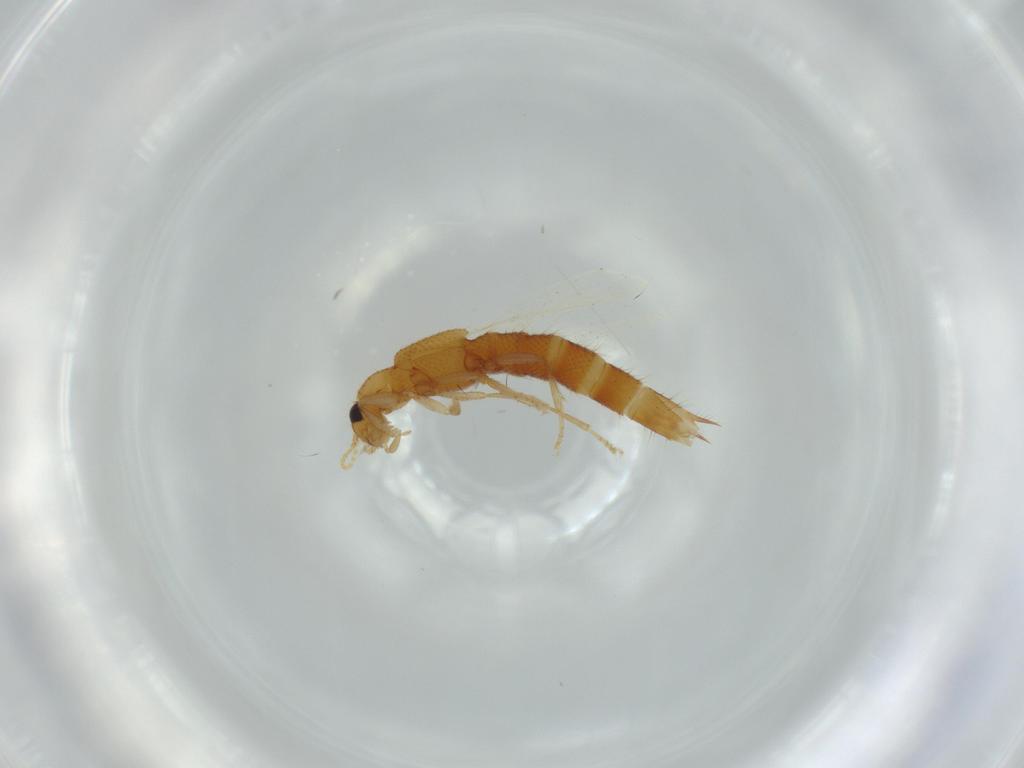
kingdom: Animalia
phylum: Arthropoda
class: Insecta
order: Coleoptera
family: Staphylinidae
